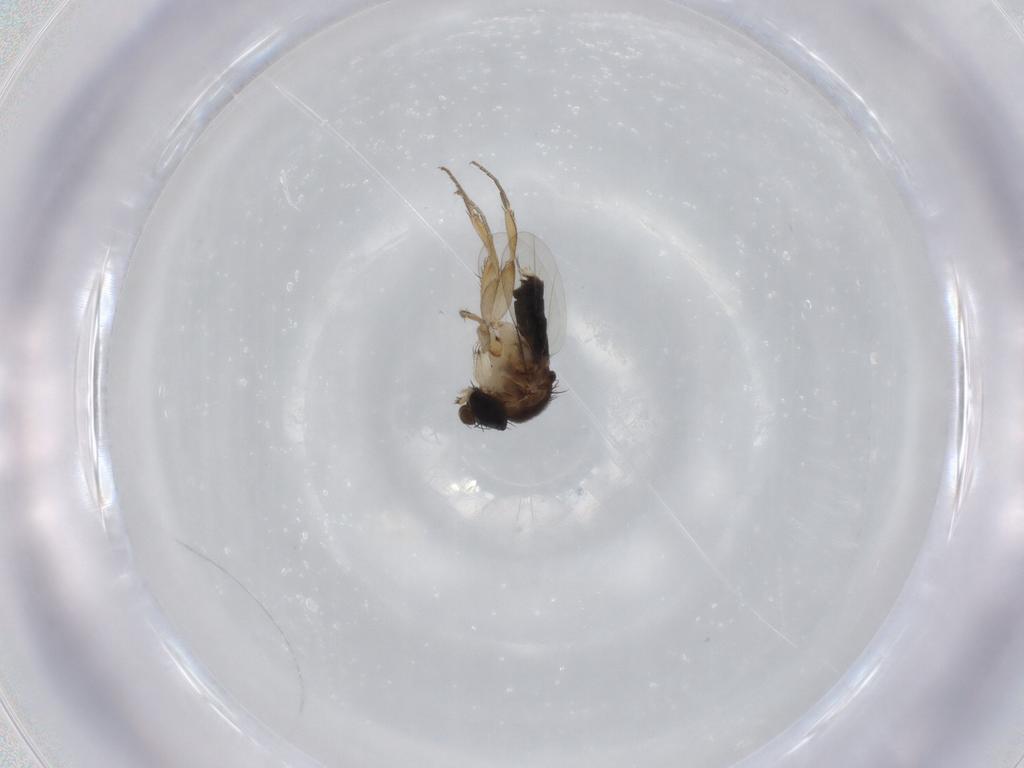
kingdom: Animalia
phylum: Arthropoda
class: Insecta
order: Diptera
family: Phoridae
